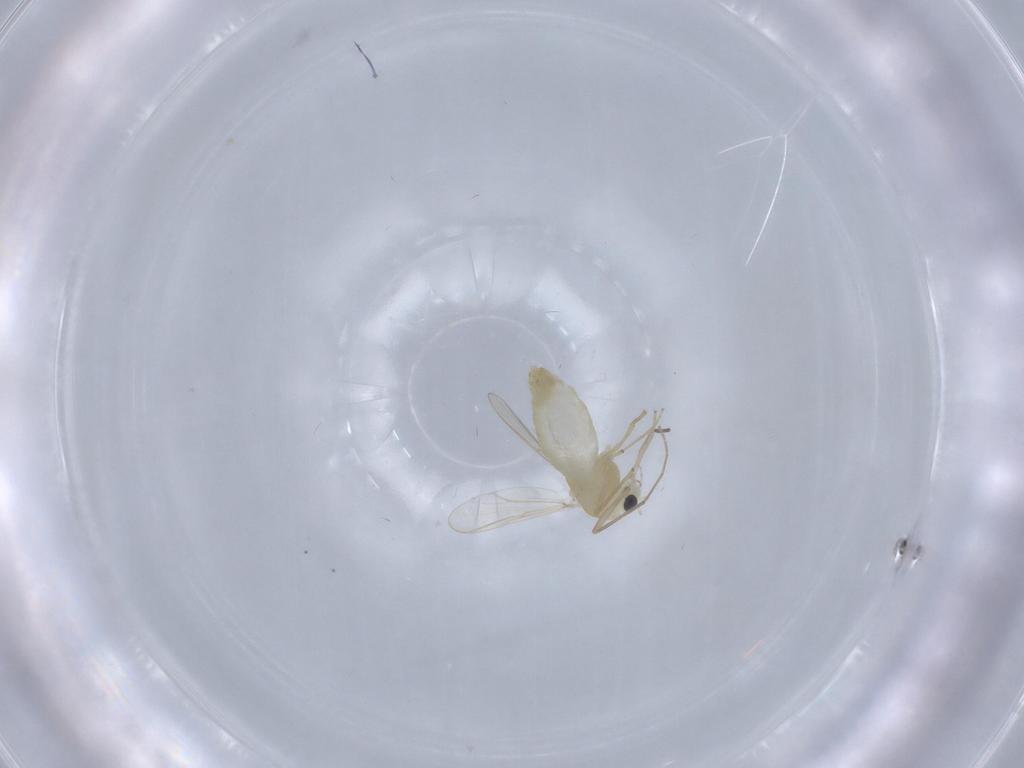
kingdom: Animalia
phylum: Arthropoda
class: Insecta
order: Diptera
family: Chironomidae
